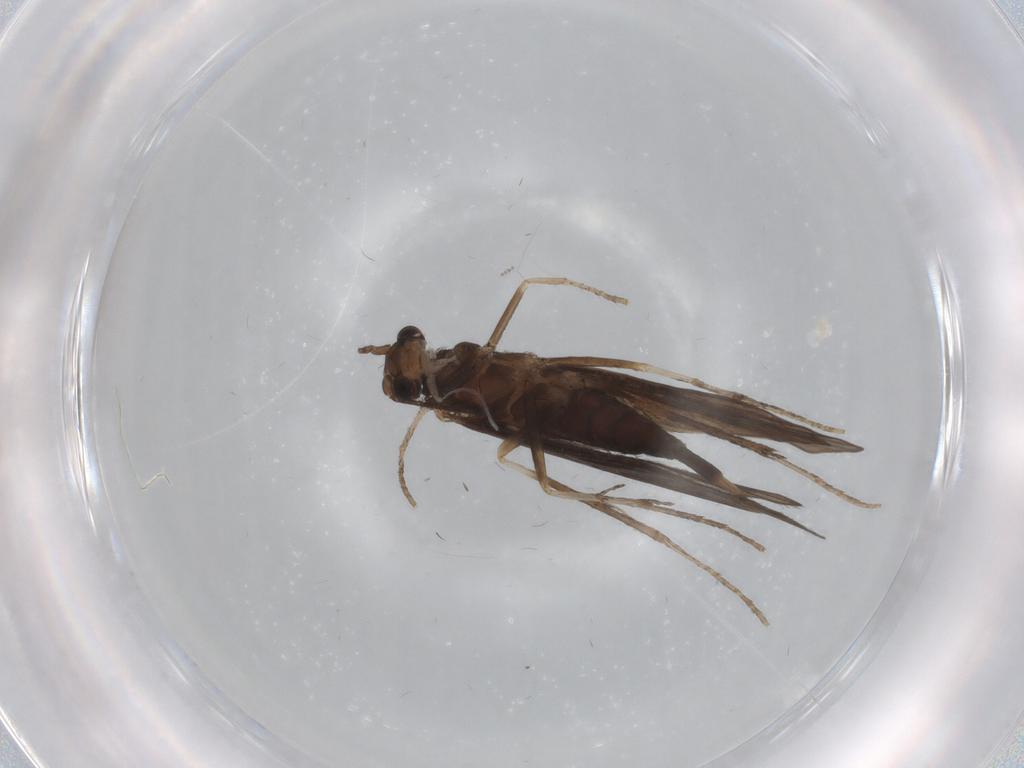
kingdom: Animalia
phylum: Arthropoda
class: Insecta
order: Trichoptera
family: Xiphocentronidae
